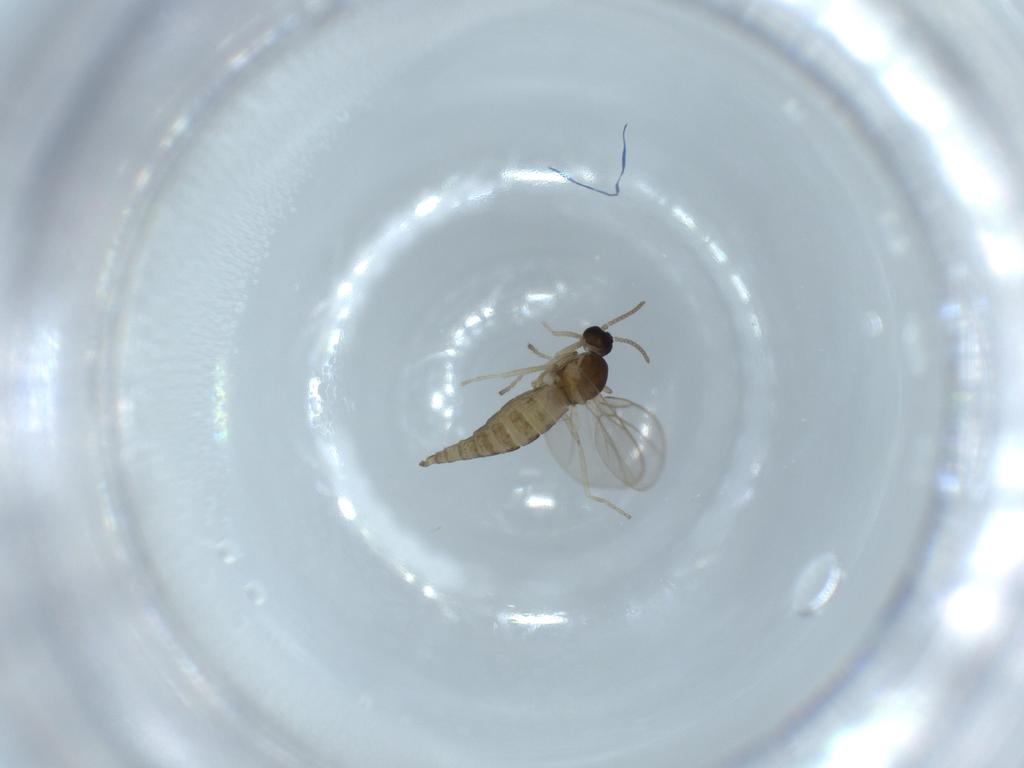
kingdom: Animalia
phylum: Arthropoda
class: Insecta
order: Diptera
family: Cecidomyiidae
